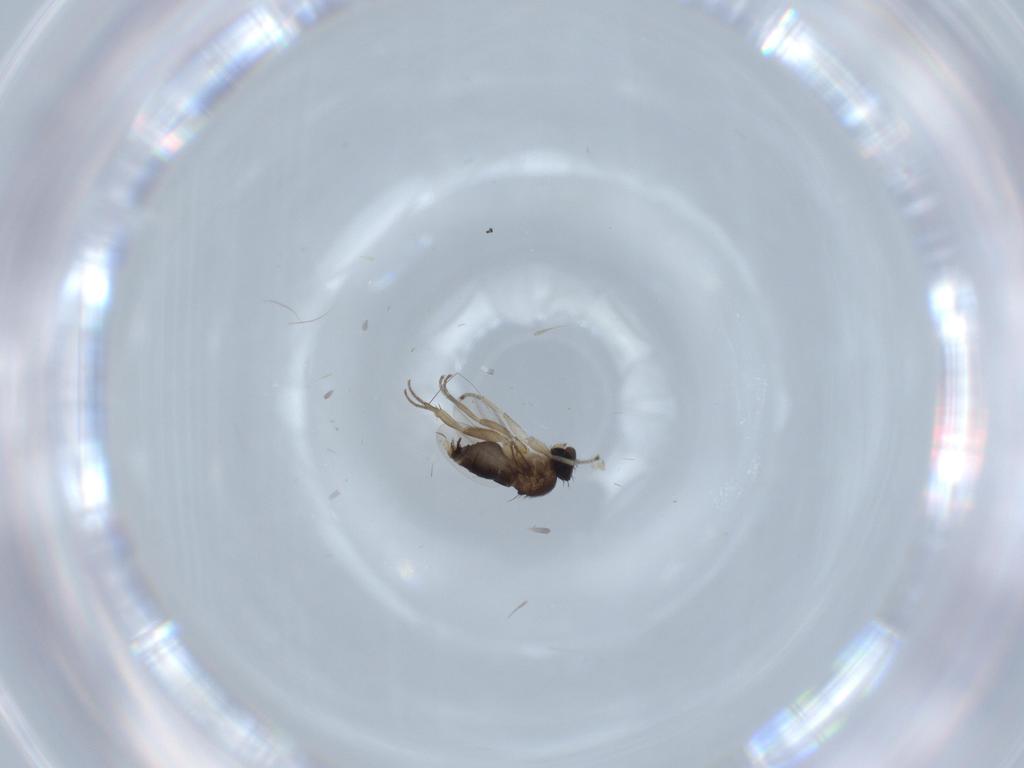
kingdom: Animalia
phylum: Arthropoda
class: Insecta
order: Diptera
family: Phoridae
